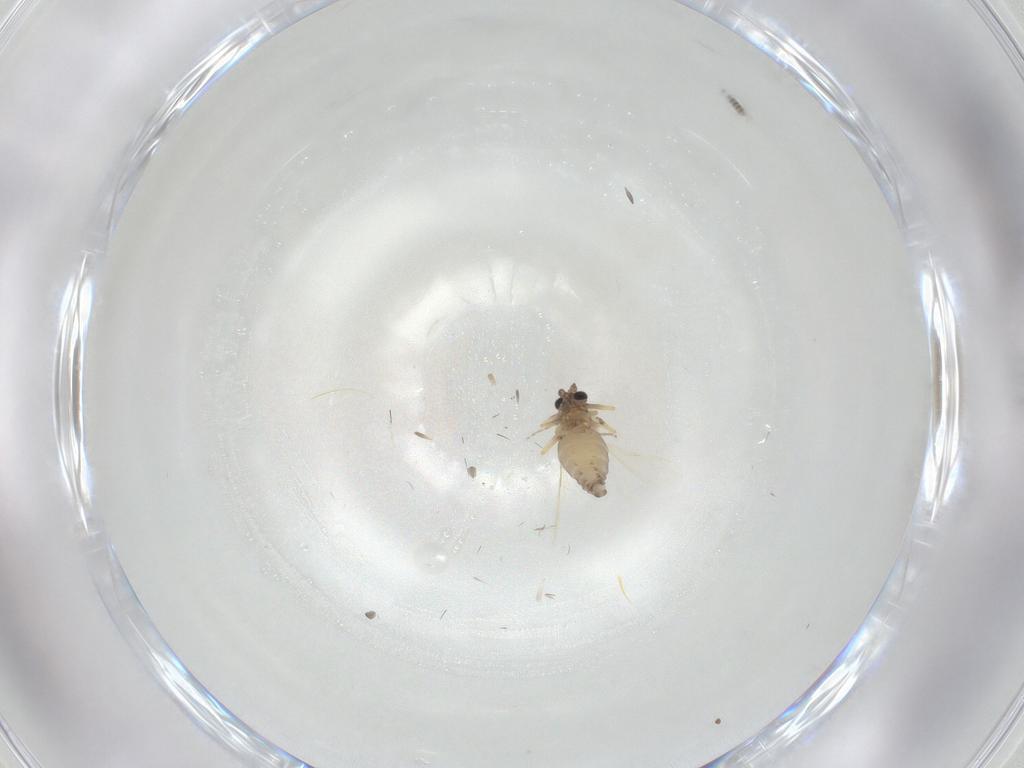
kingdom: Animalia
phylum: Arthropoda
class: Insecta
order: Diptera
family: Ceratopogonidae
